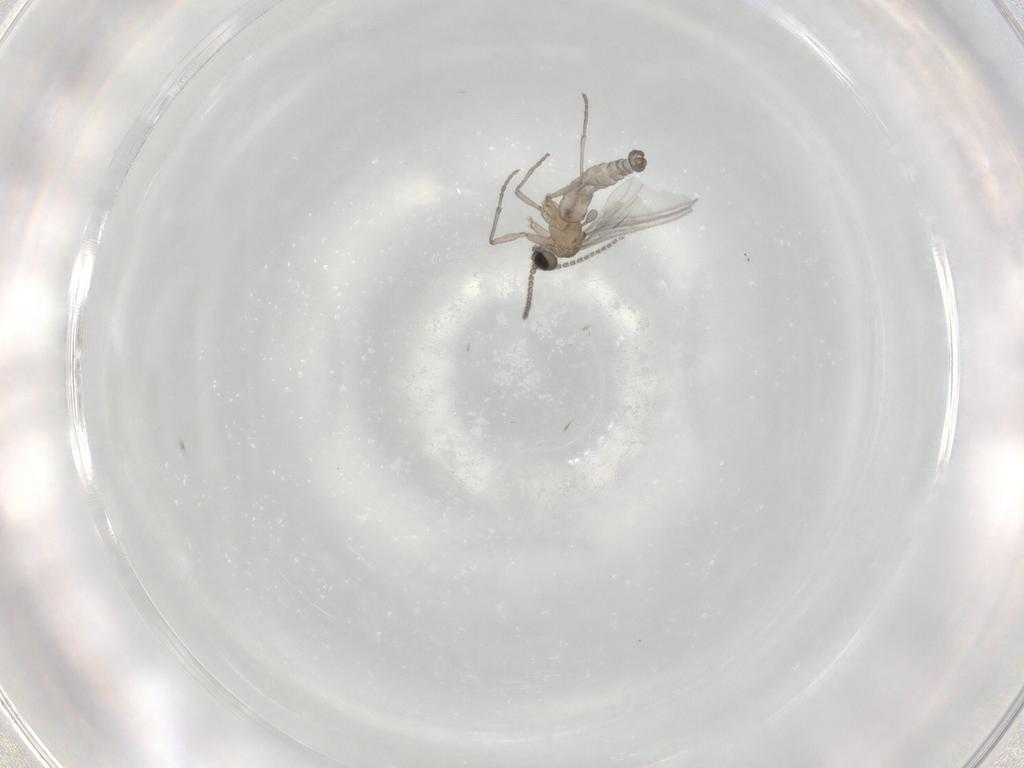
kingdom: Animalia
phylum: Arthropoda
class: Insecta
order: Diptera
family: Sciaridae
